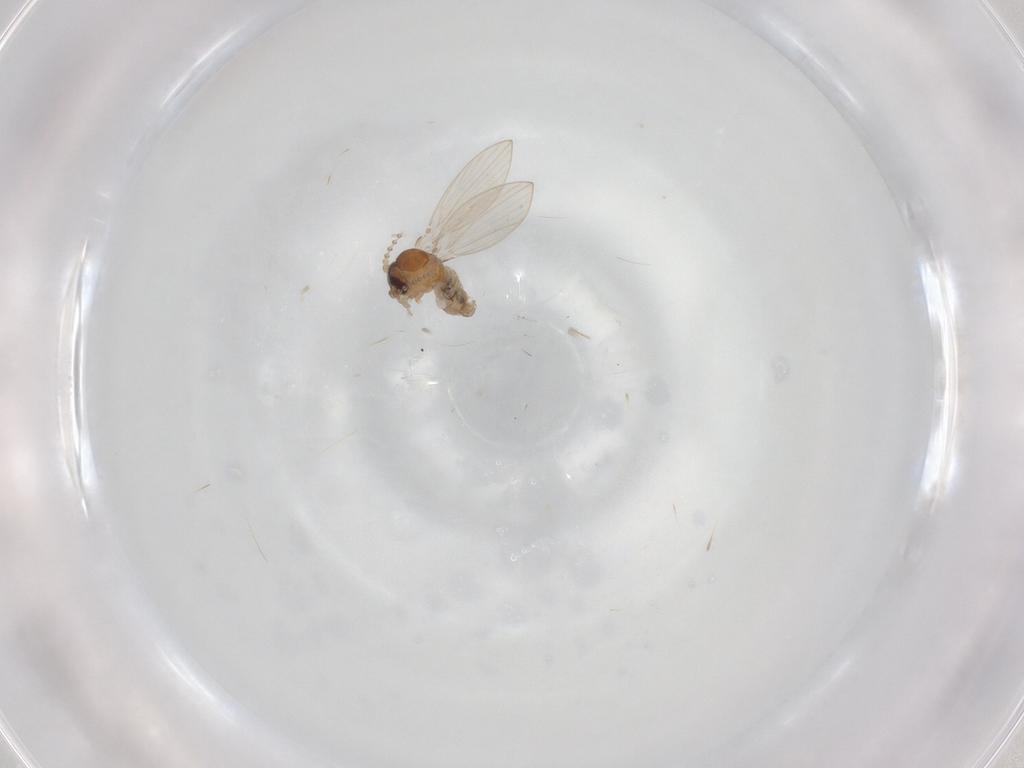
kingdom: Animalia
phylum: Arthropoda
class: Insecta
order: Diptera
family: Cecidomyiidae
